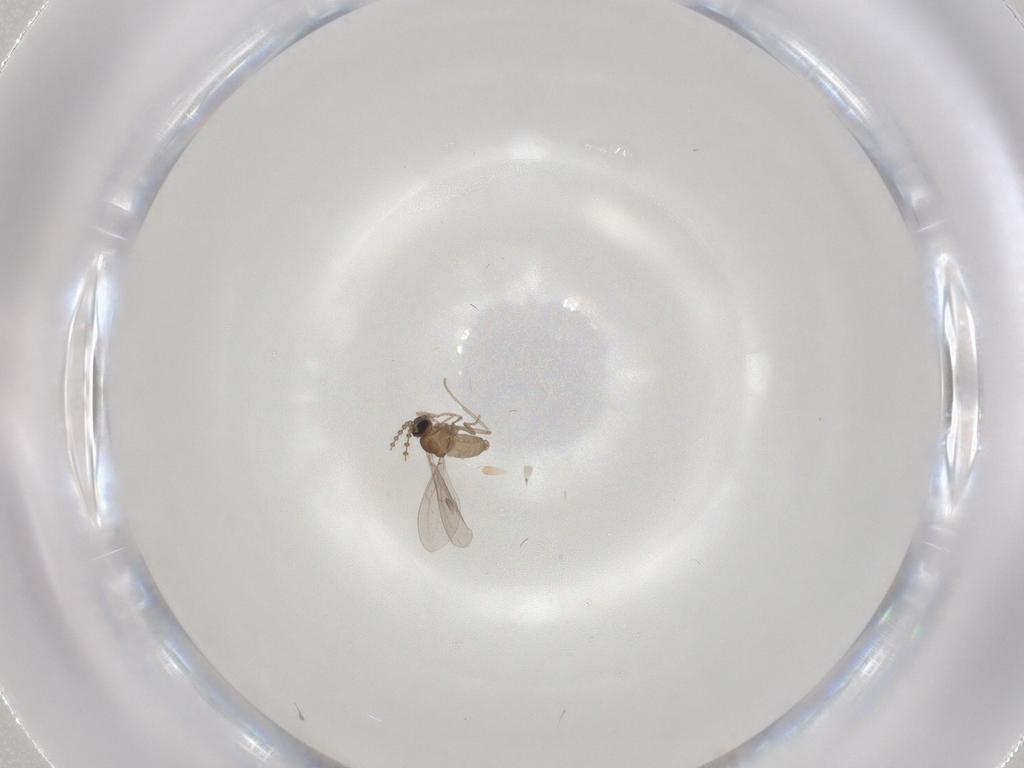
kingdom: Animalia
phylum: Arthropoda
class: Insecta
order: Diptera
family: Cecidomyiidae
